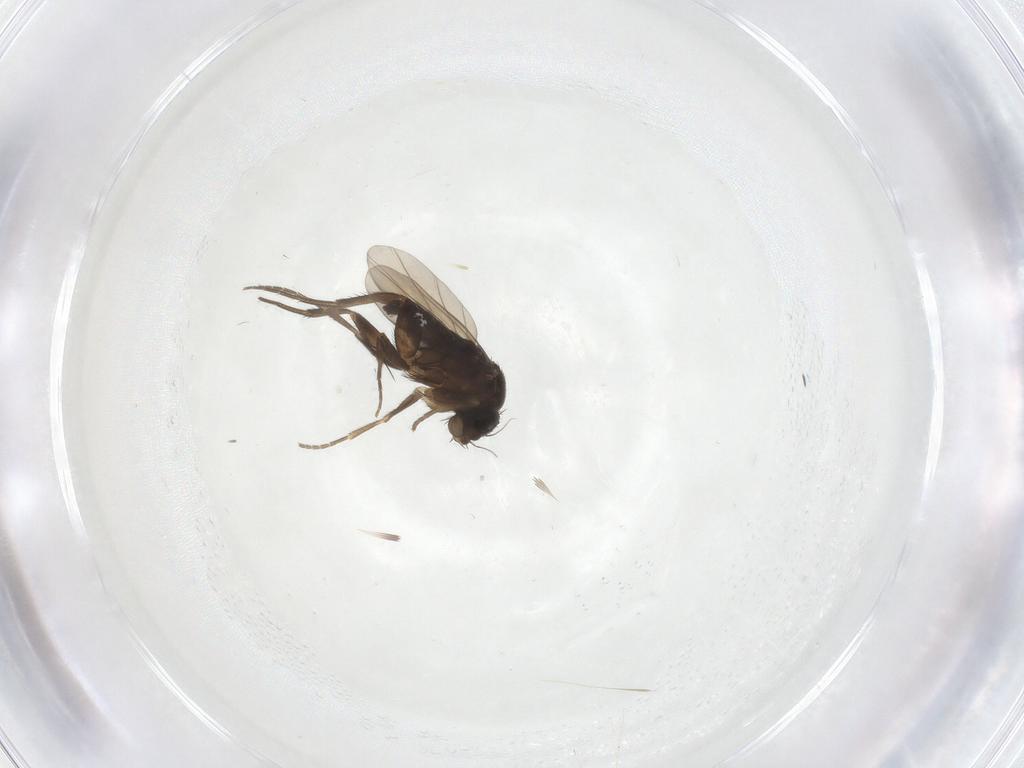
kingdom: Animalia
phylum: Arthropoda
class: Insecta
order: Diptera
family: Phoridae
